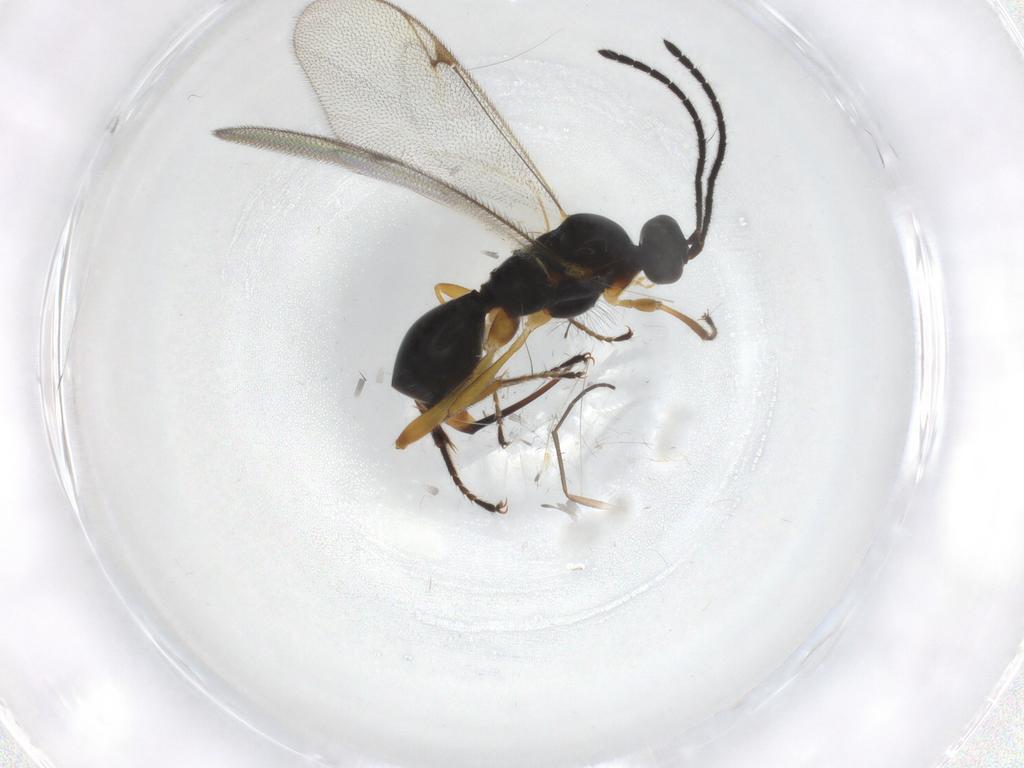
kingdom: Animalia
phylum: Arthropoda
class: Insecta
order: Hymenoptera
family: Proctotrupidae
